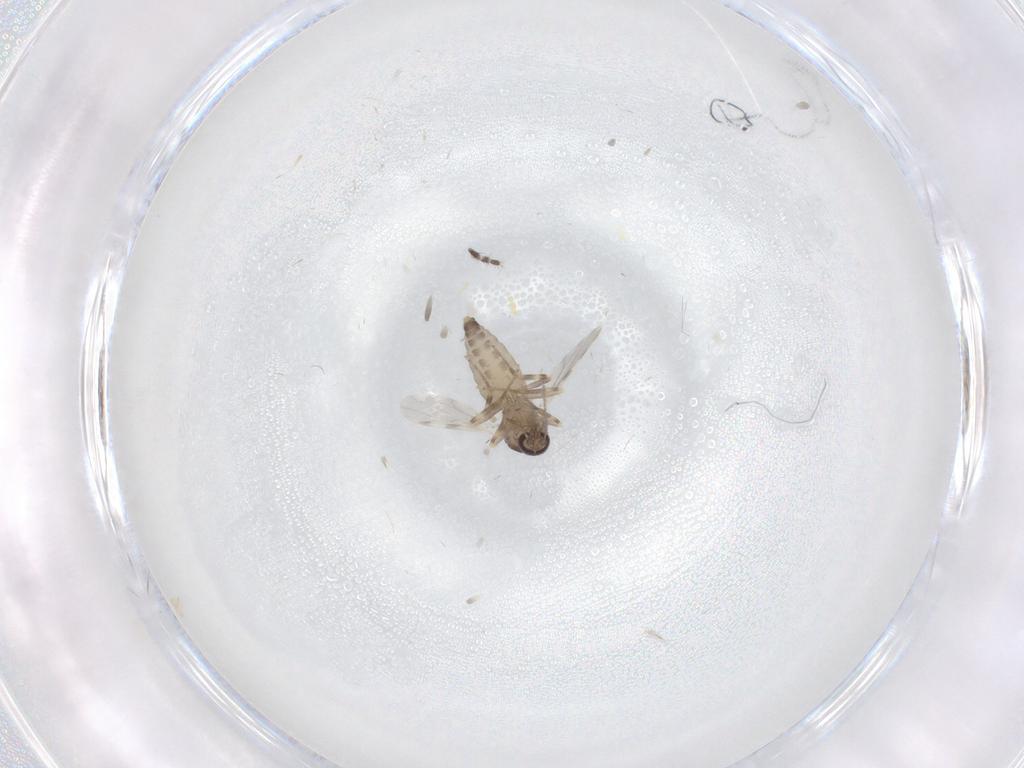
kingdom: Animalia
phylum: Arthropoda
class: Insecta
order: Diptera
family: Ceratopogonidae
